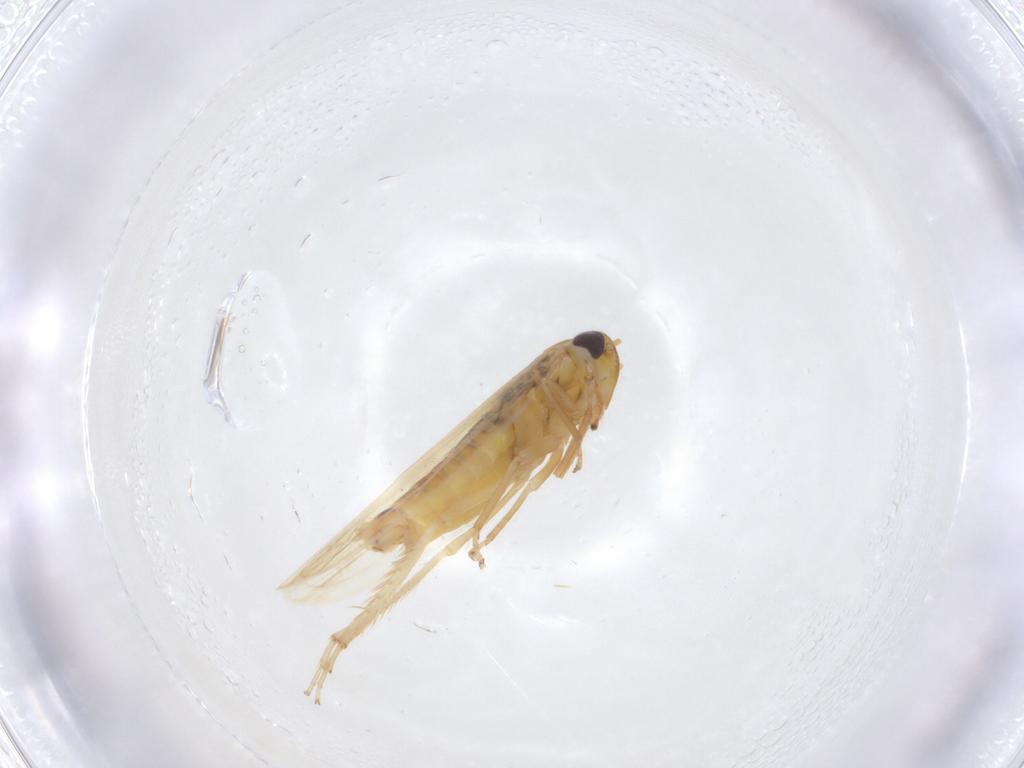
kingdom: Animalia
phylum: Arthropoda
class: Insecta
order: Hemiptera
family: Cicadellidae
